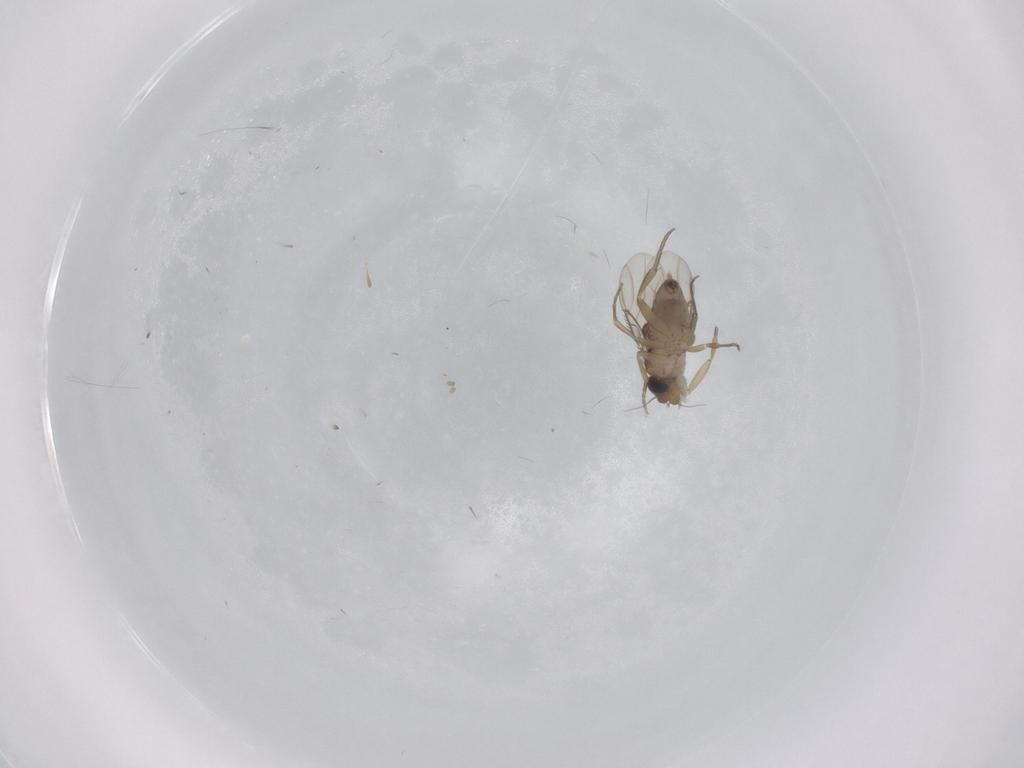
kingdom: Animalia
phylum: Arthropoda
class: Insecta
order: Diptera
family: Phoridae
